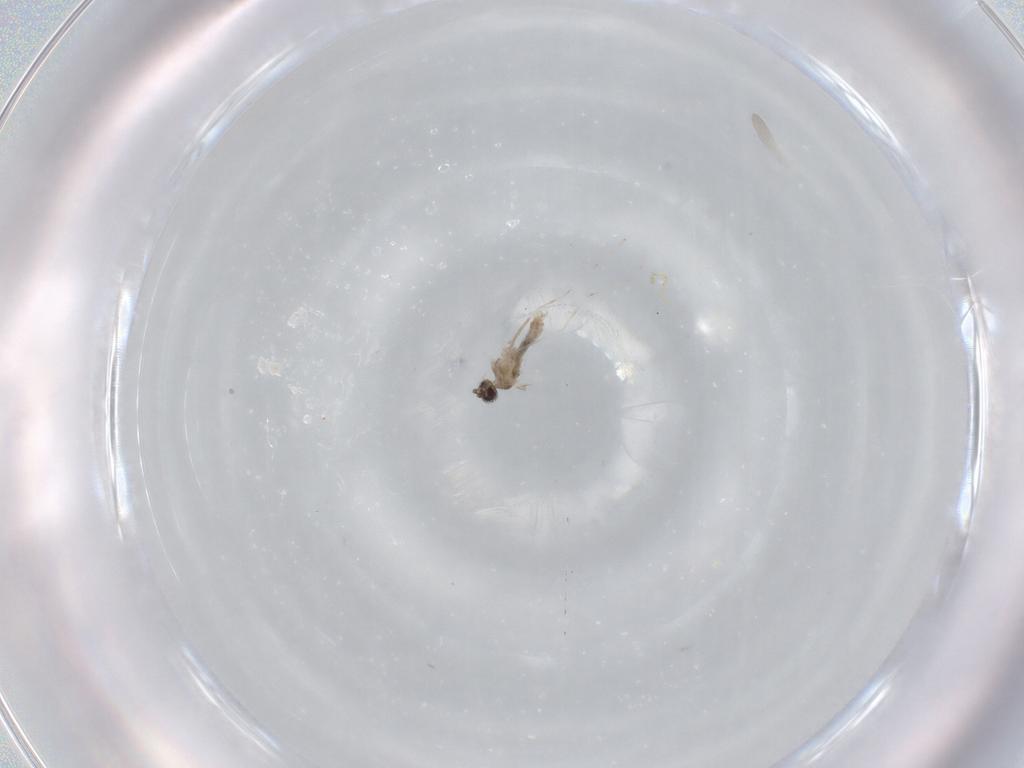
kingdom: Animalia
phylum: Arthropoda
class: Insecta
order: Diptera
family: Cecidomyiidae
